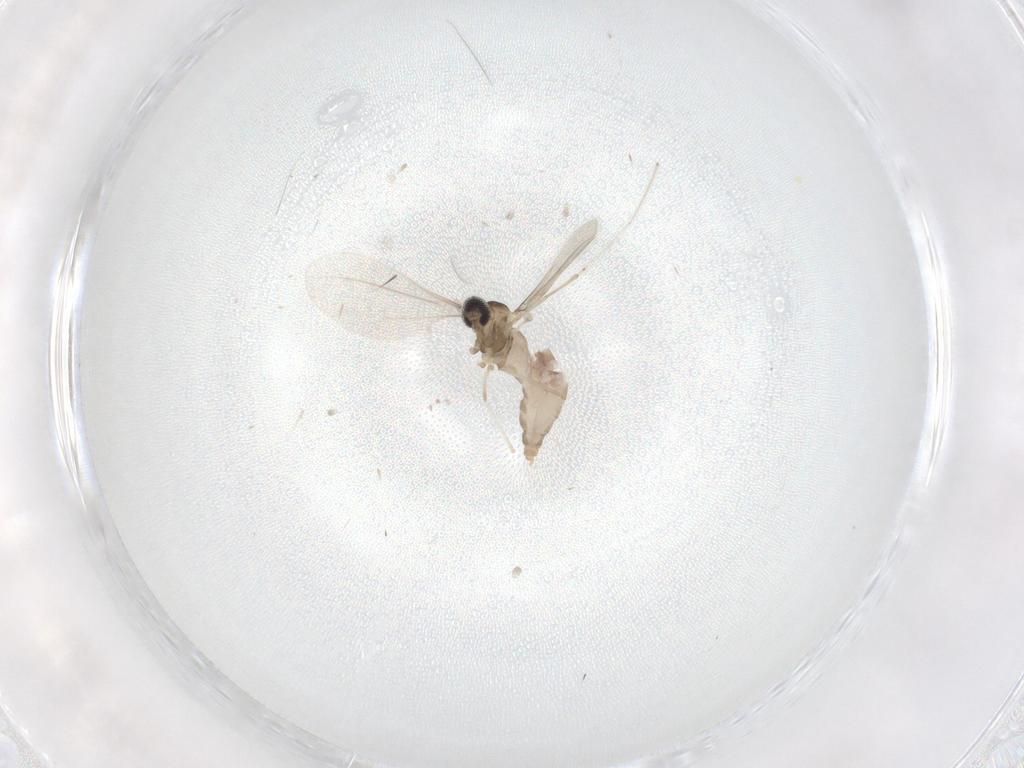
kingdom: Animalia
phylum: Arthropoda
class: Insecta
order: Diptera
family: Cecidomyiidae
